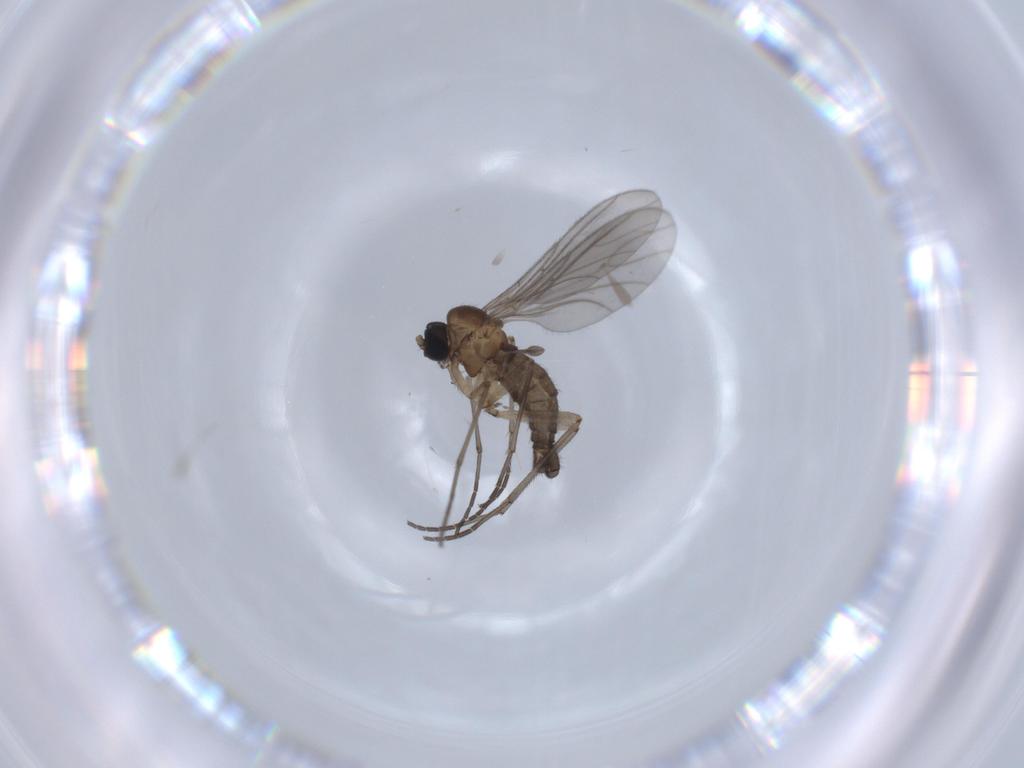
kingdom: Animalia
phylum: Arthropoda
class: Insecta
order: Diptera
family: Sciaridae
